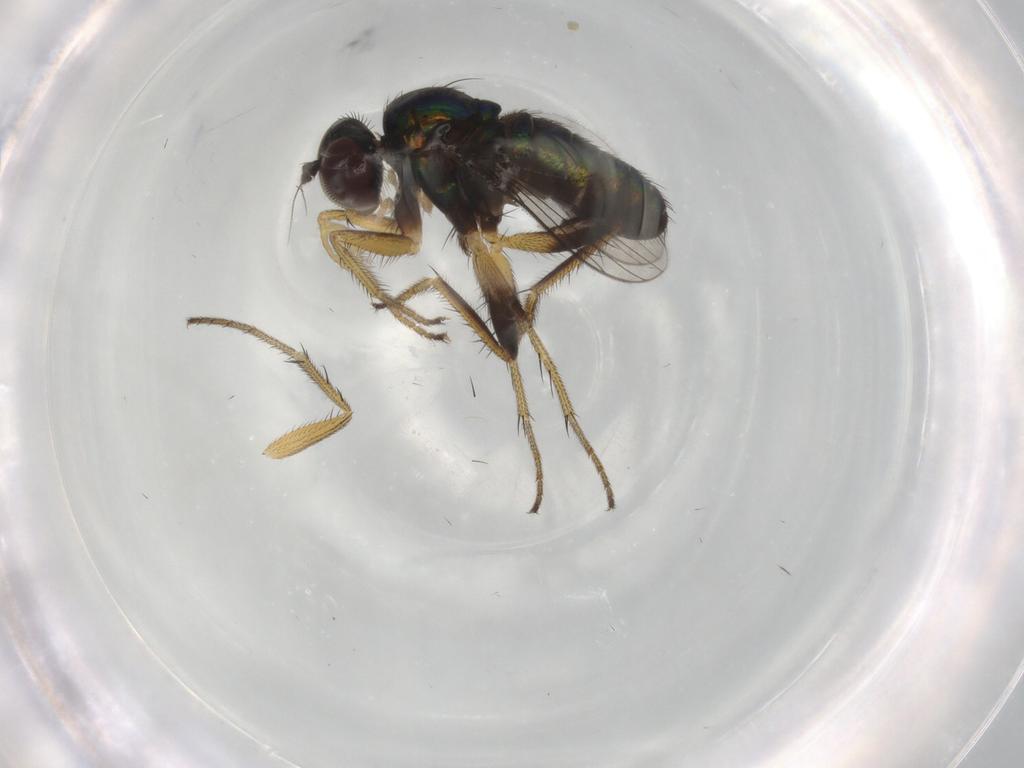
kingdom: Animalia
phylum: Arthropoda
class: Insecta
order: Diptera
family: Dolichopodidae
